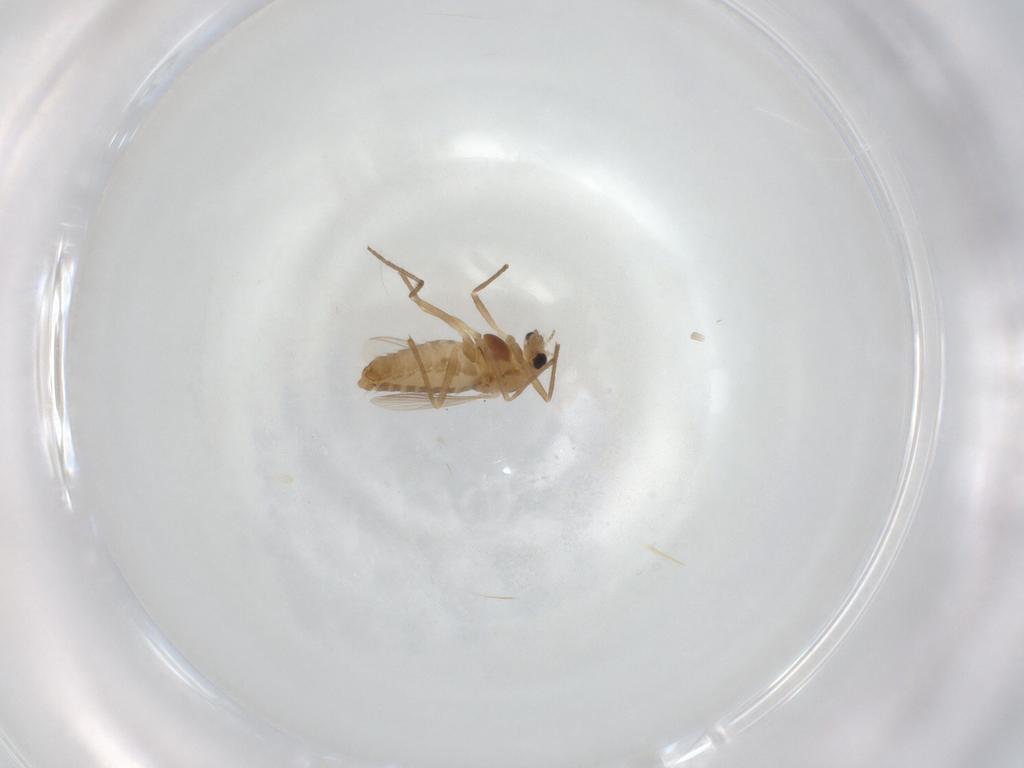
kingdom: Animalia
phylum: Arthropoda
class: Insecta
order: Diptera
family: Chironomidae
